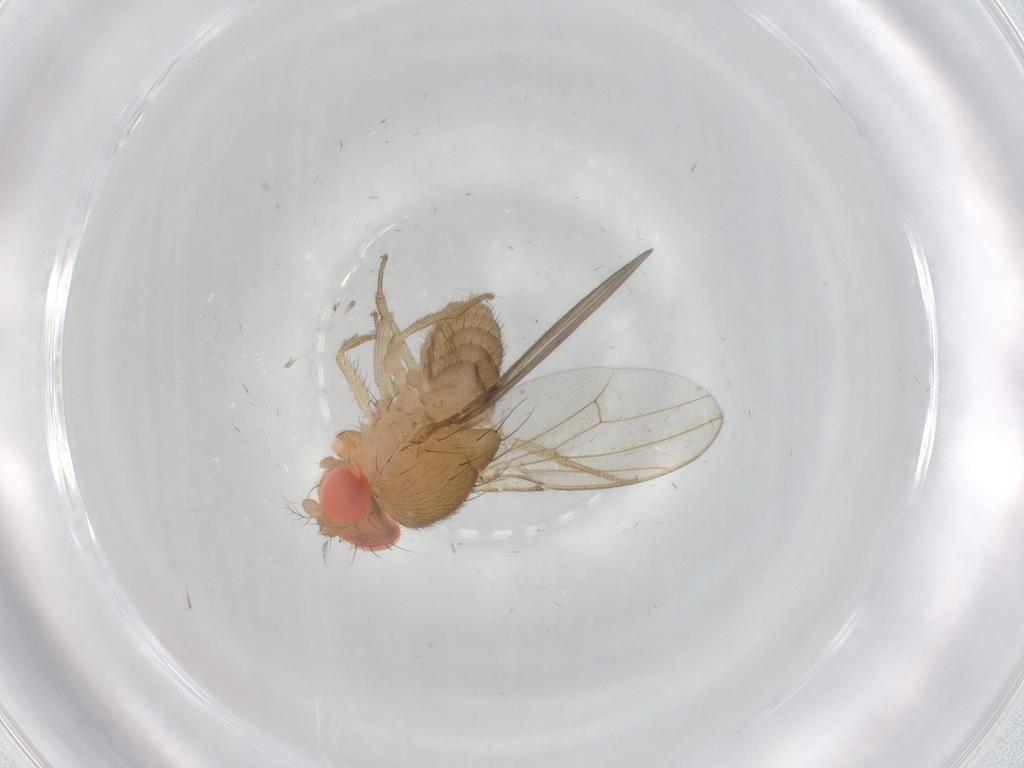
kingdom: Animalia
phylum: Arthropoda
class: Insecta
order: Diptera
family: Drosophilidae
